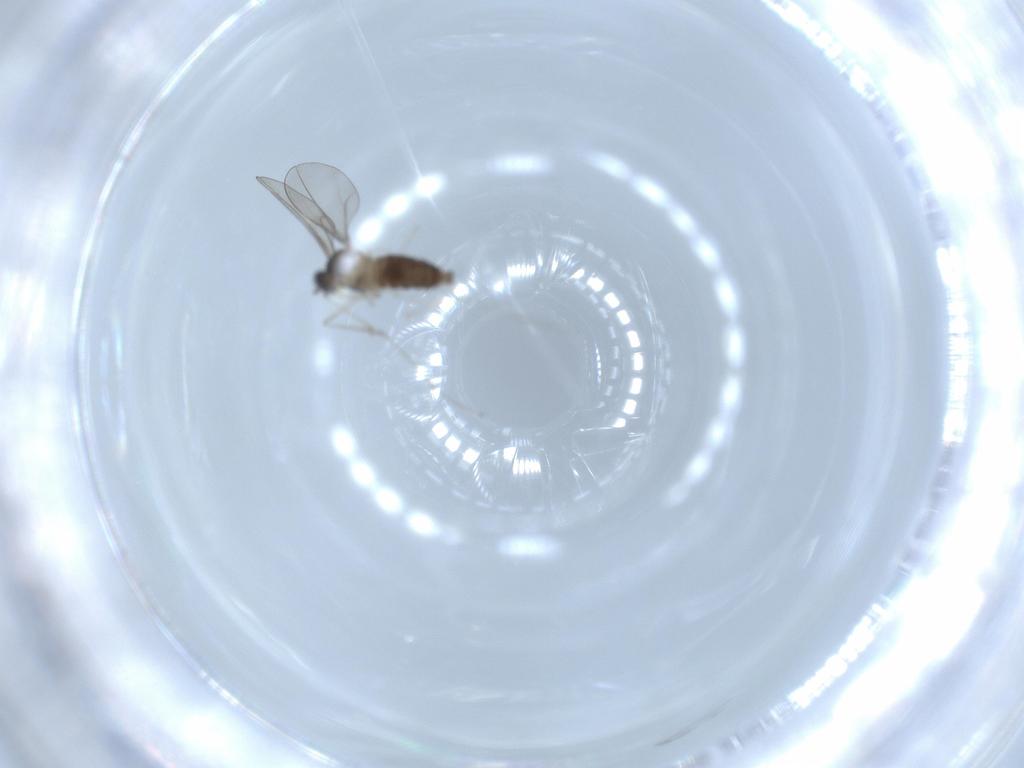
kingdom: Animalia
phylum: Arthropoda
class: Insecta
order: Diptera
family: Cecidomyiidae
